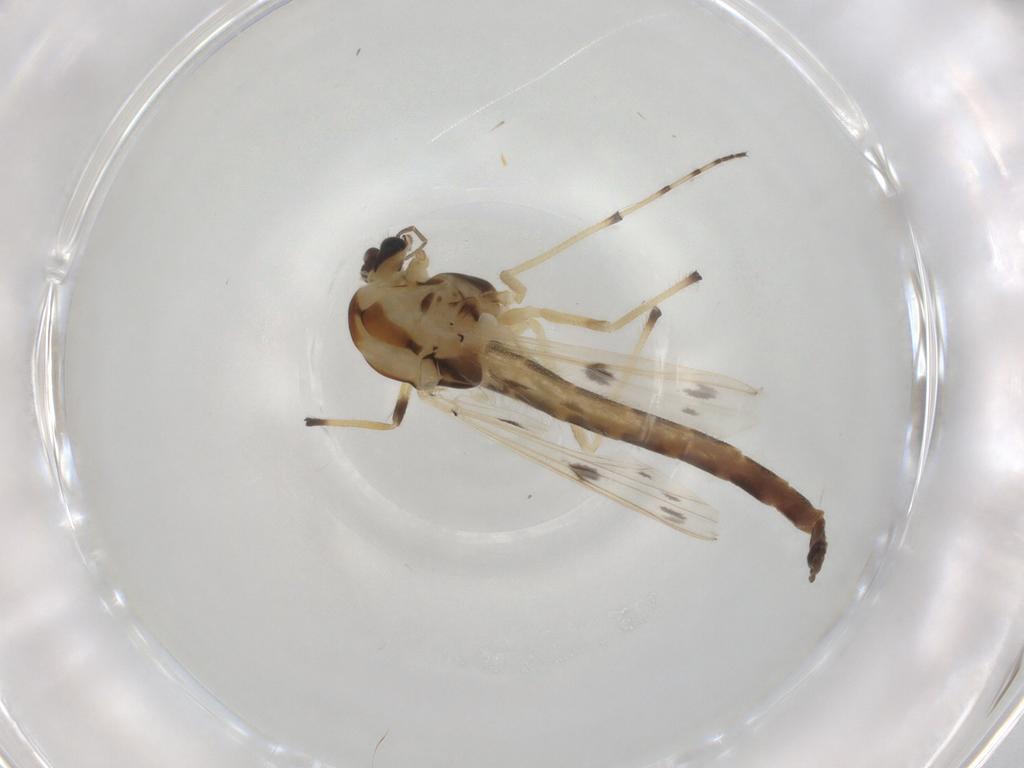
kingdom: Animalia
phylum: Arthropoda
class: Insecta
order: Diptera
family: Chironomidae
